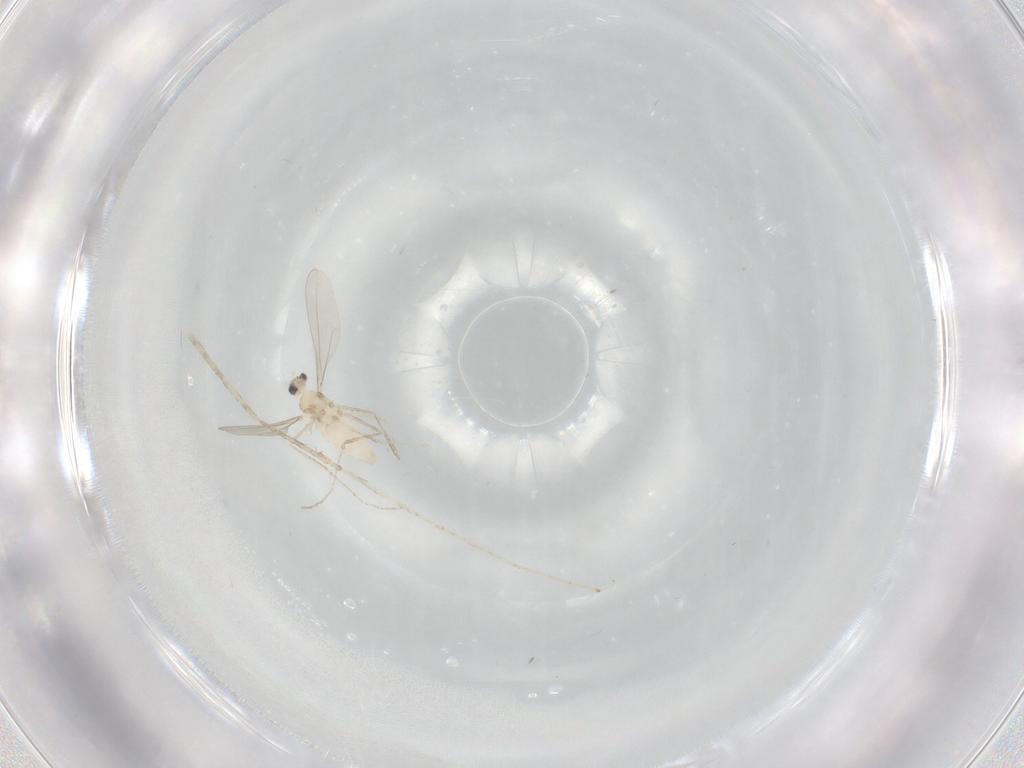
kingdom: Animalia
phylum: Arthropoda
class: Insecta
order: Diptera
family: Cecidomyiidae
